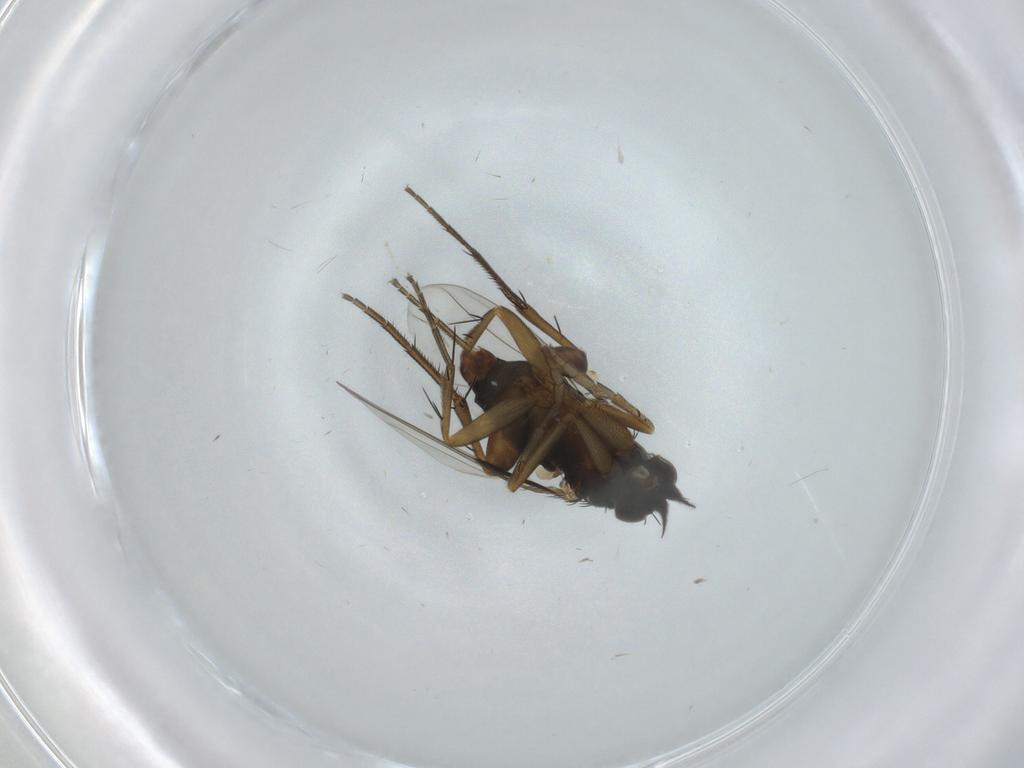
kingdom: Animalia
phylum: Arthropoda
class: Insecta
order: Diptera
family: Phoridae
